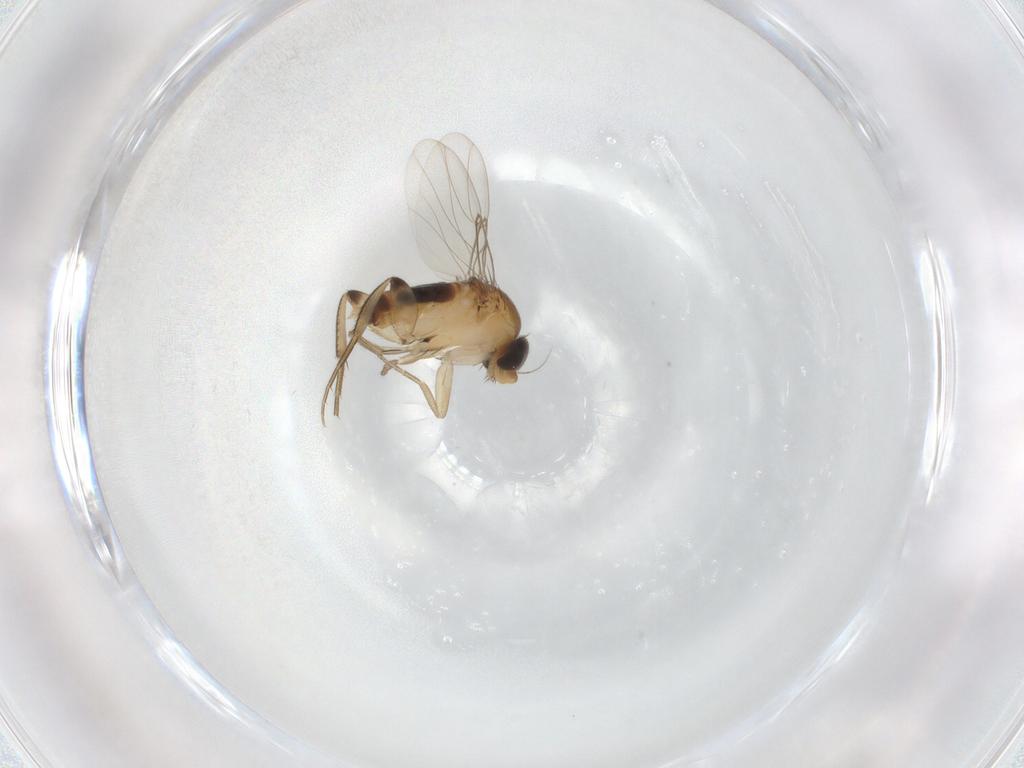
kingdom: Animalia
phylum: Arthropoda
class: Insecta
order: Diptera
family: Phoridae
